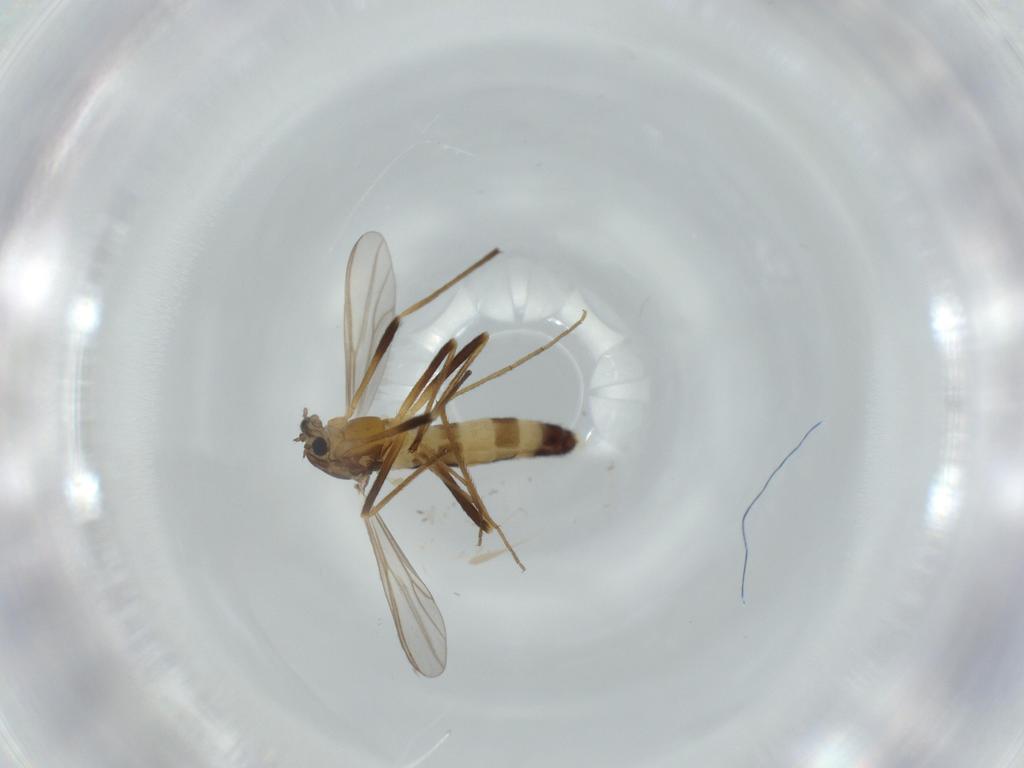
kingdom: Animalia
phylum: Arthropoda
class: Insecta
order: Diptera
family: Chironomidae
